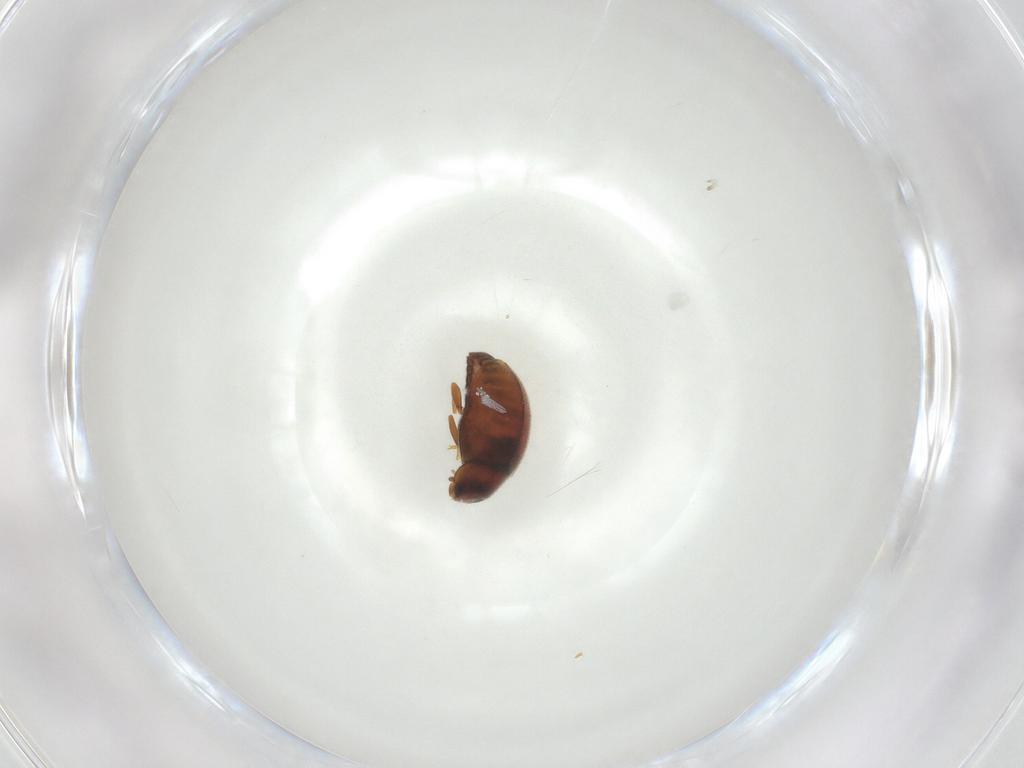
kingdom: Animalia
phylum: Arthropoda
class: Insecta
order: Coleoptera
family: Coccinellidae
